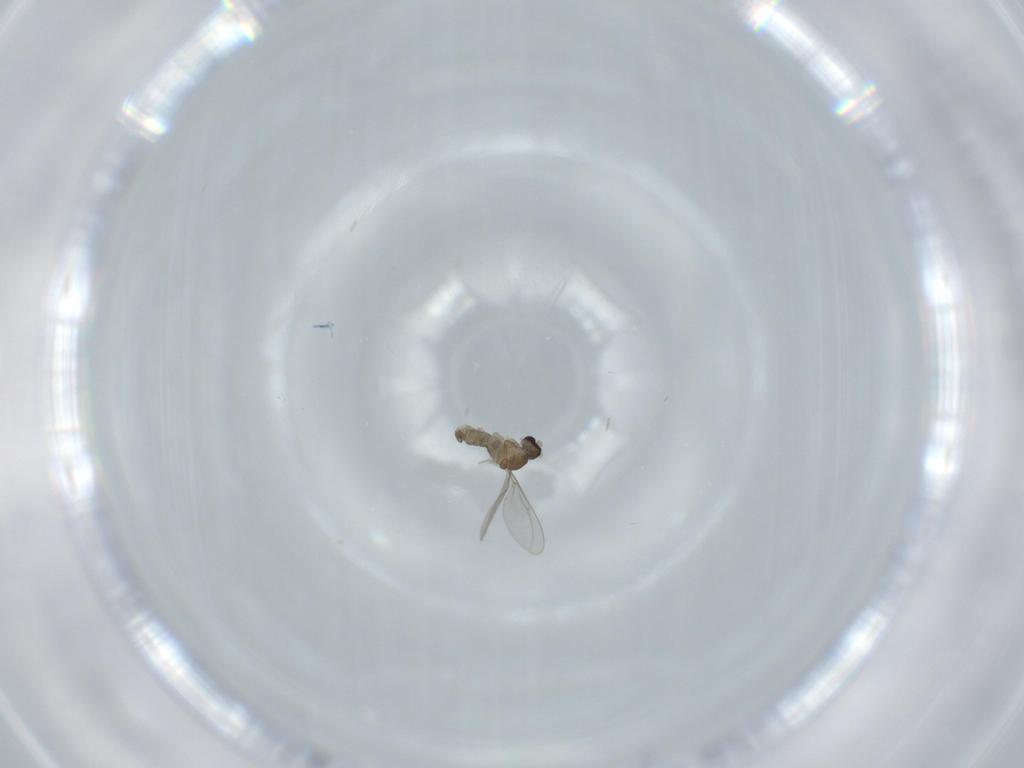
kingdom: Animalia
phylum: Arthropoda
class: Insecta
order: Diptera
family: Cecidomyiidae
